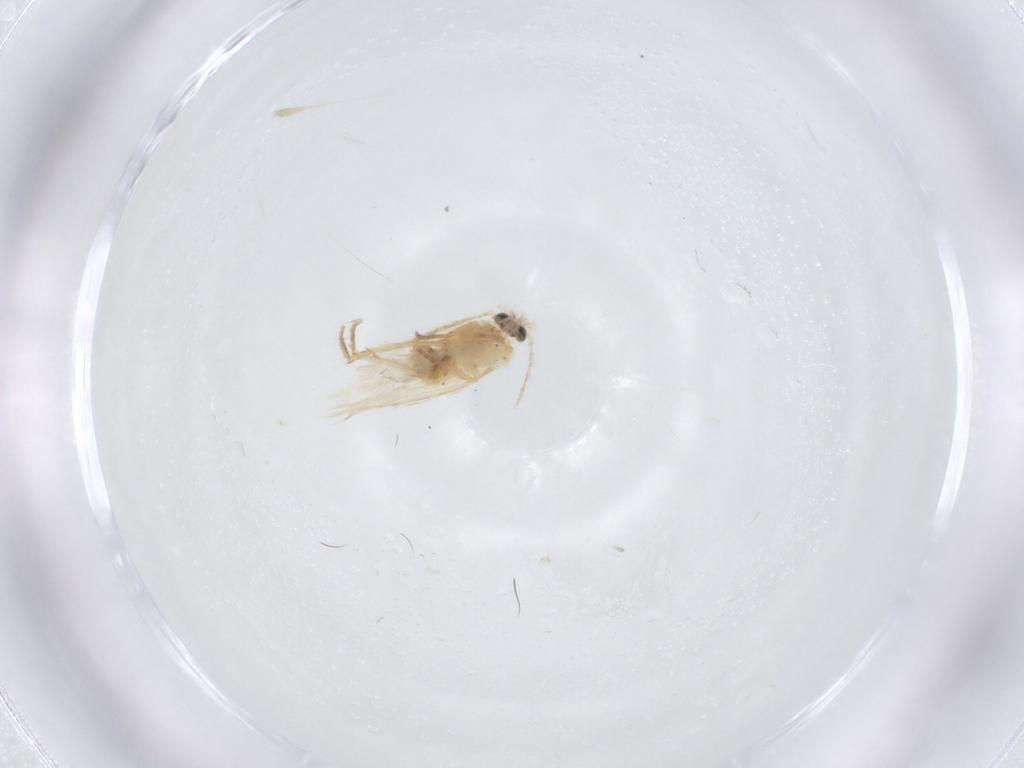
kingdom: Animalia
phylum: Arthropoda
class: Insecta
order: Lepidoptera
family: Nepticulidae
